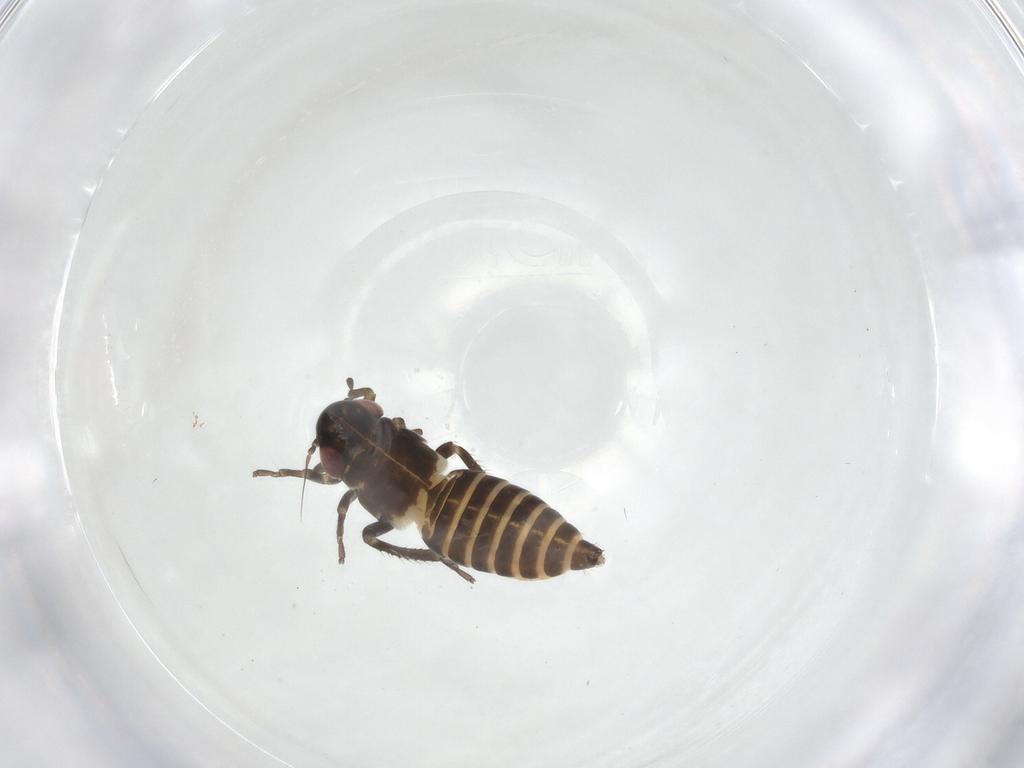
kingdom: Animalia
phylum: Arthropoda
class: Insecta
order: Hemiptera
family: Cicadellidae
